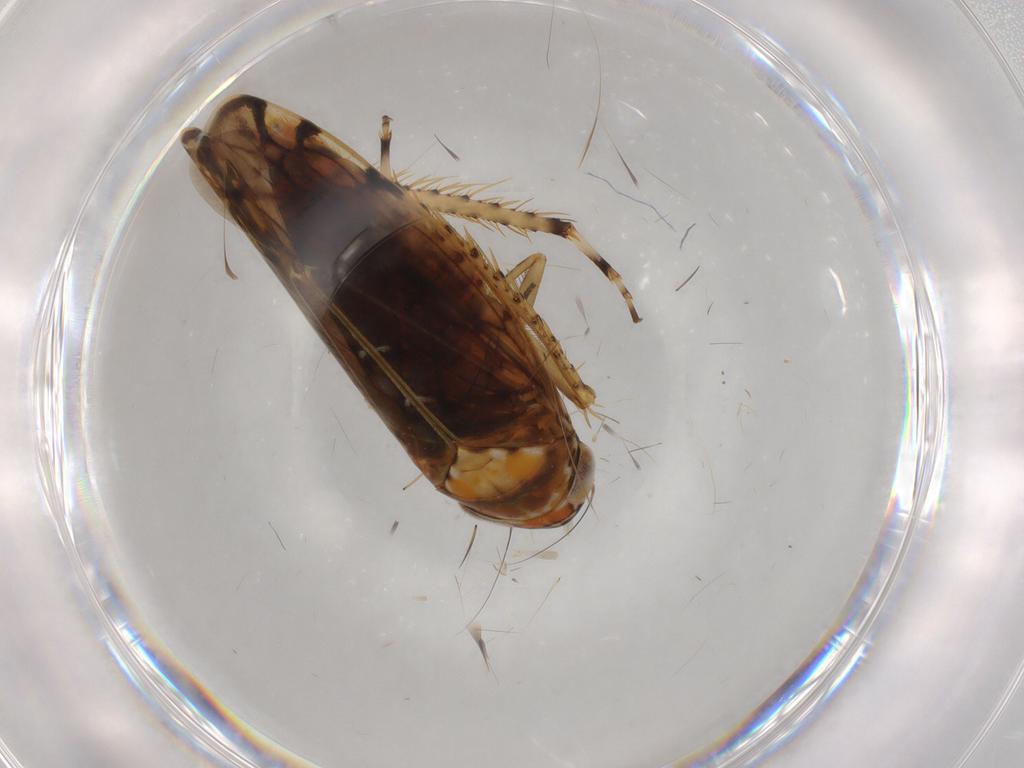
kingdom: Animalia
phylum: Arthropoda
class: Insecta
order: Hemiptera
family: Cicadellidae
